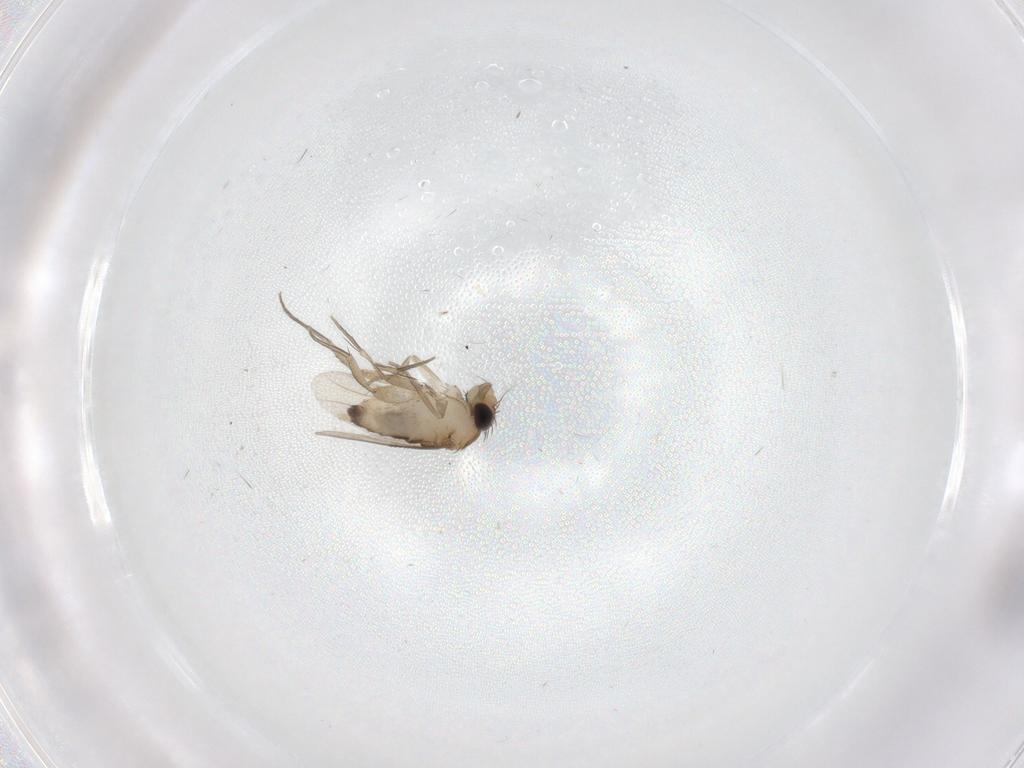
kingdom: Animalia
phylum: Arthropoda
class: Insecta
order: Diptera
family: Phoridae
